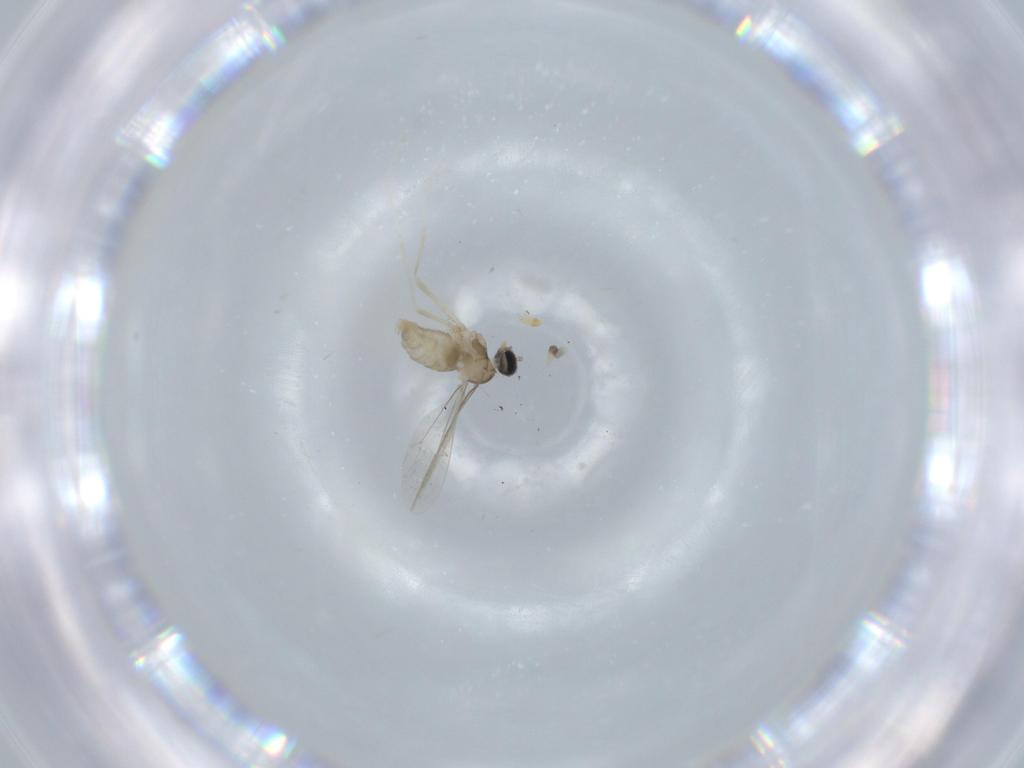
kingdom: Animalia
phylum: Arthropoda
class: Insecta
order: Diptera
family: Cecidomyiidae
